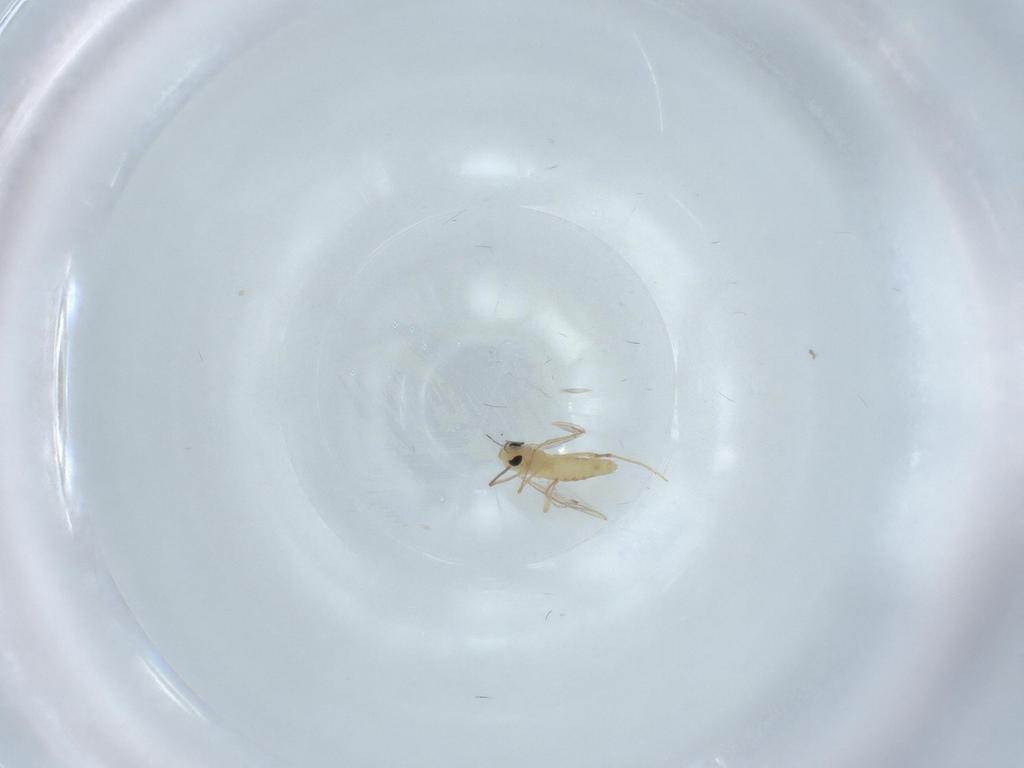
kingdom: Animalia
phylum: Arthropoda
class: Insecta
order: Diptera
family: Chironomidae
